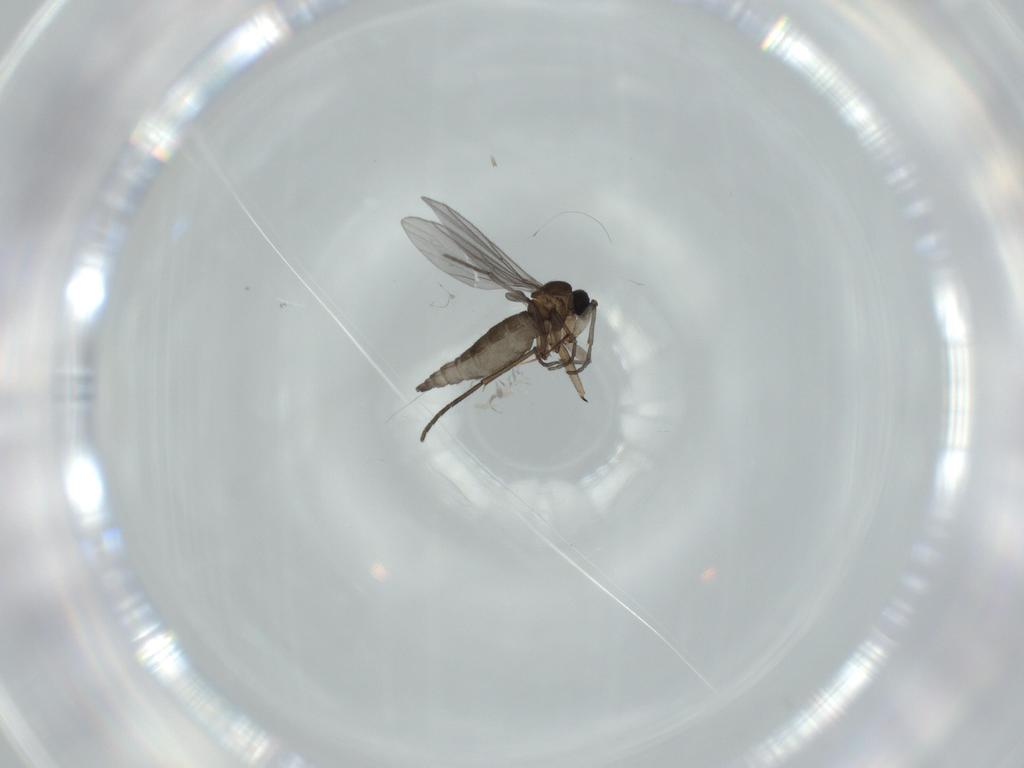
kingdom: Animalia
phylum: Arthropoda
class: Insecta
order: Diptera
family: Sciaridae
